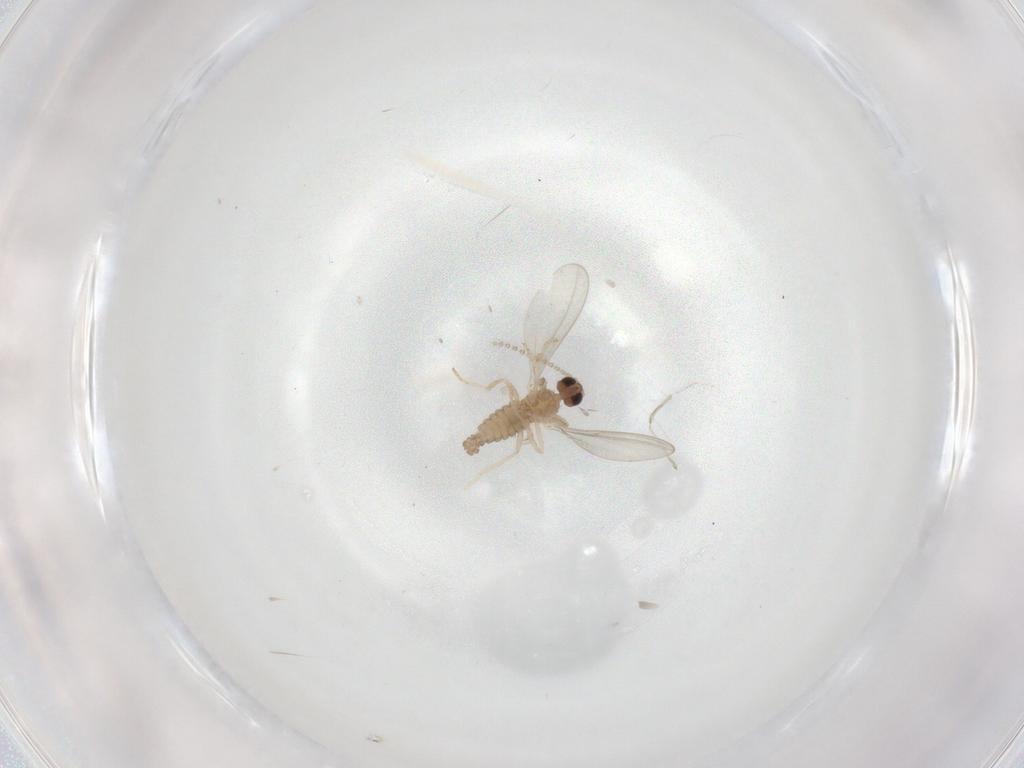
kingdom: Animalia
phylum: Arthropoda
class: Insecta
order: Diptera
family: Cecidomyiidae
